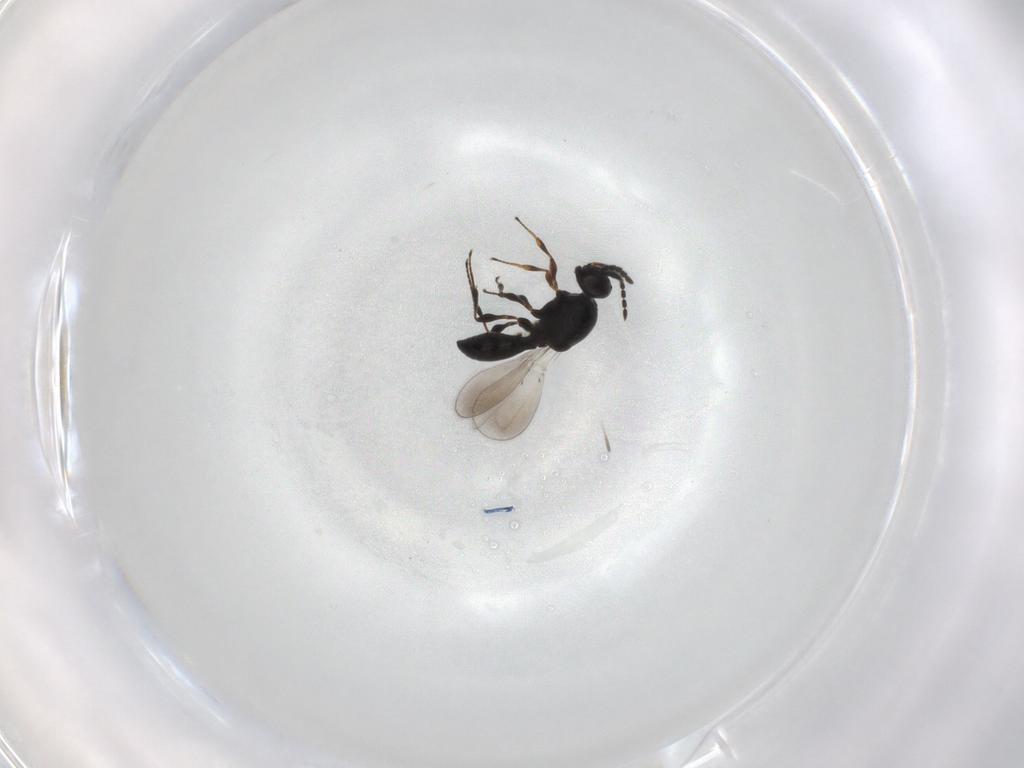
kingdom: Animalia
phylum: Arthropoda
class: Insecta
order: Hymenoptera
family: Platygastridae
